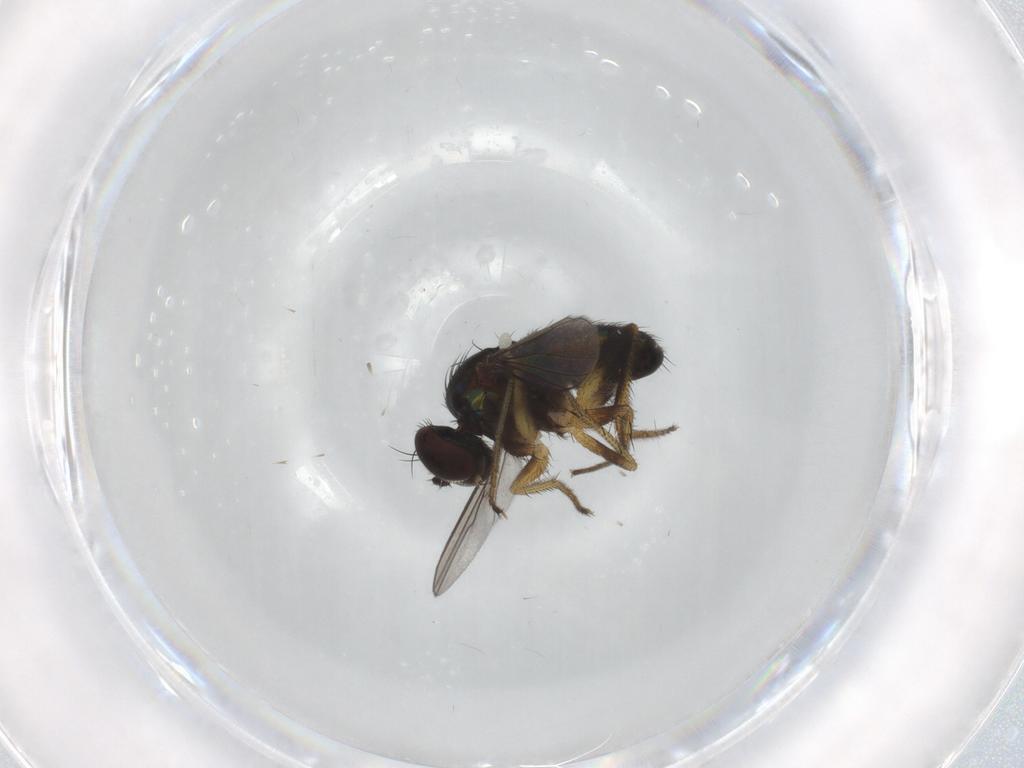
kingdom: Animalia
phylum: Arthropoda
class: Insecta
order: Diptera
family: Dolichopodidae
